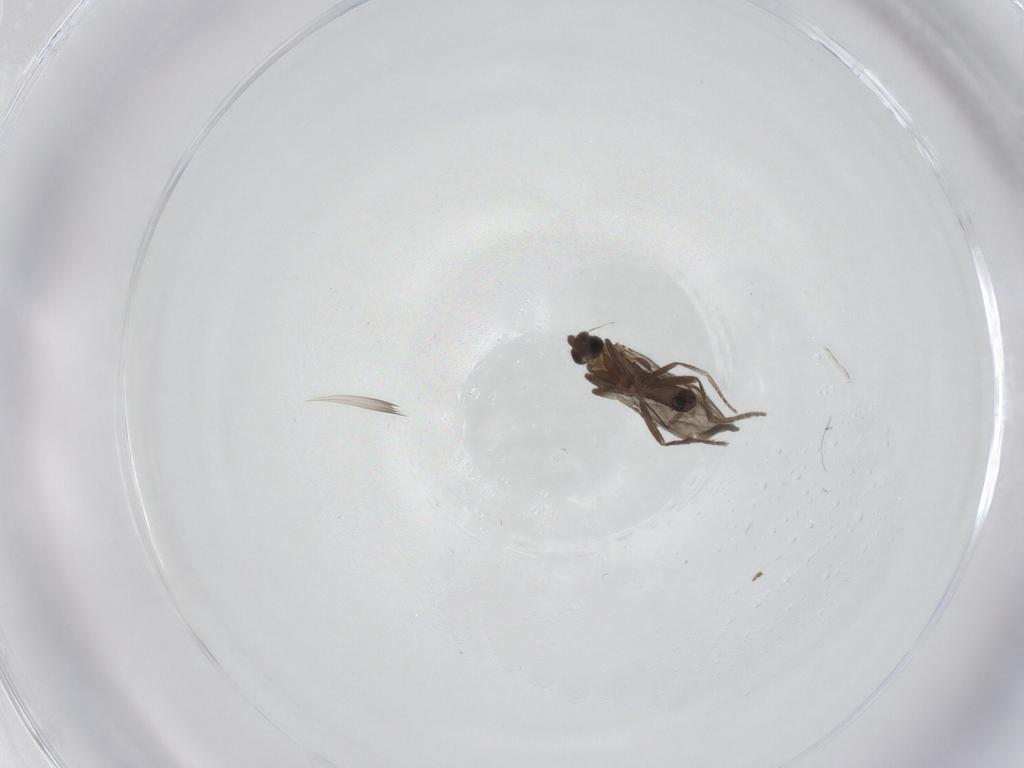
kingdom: Animalia
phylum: Arthropoda
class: Insecta
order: Diptera
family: Phoridae
